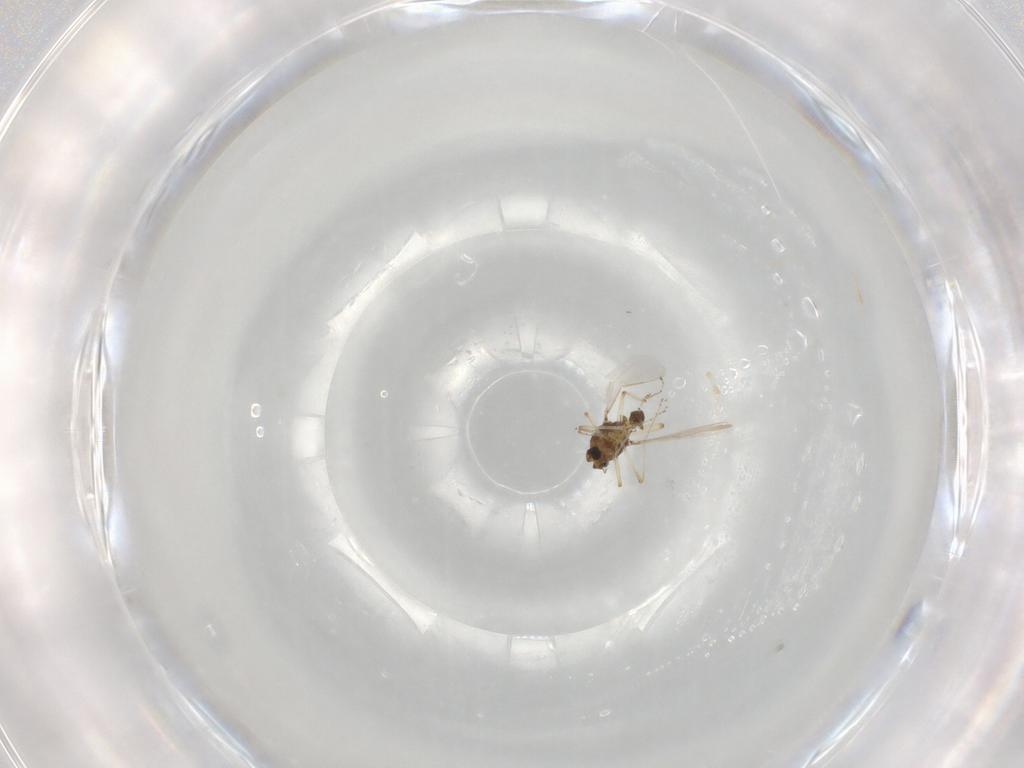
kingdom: Animalia
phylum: Arthropoda
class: Insecta
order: Diptera
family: Ceratopogonidae
